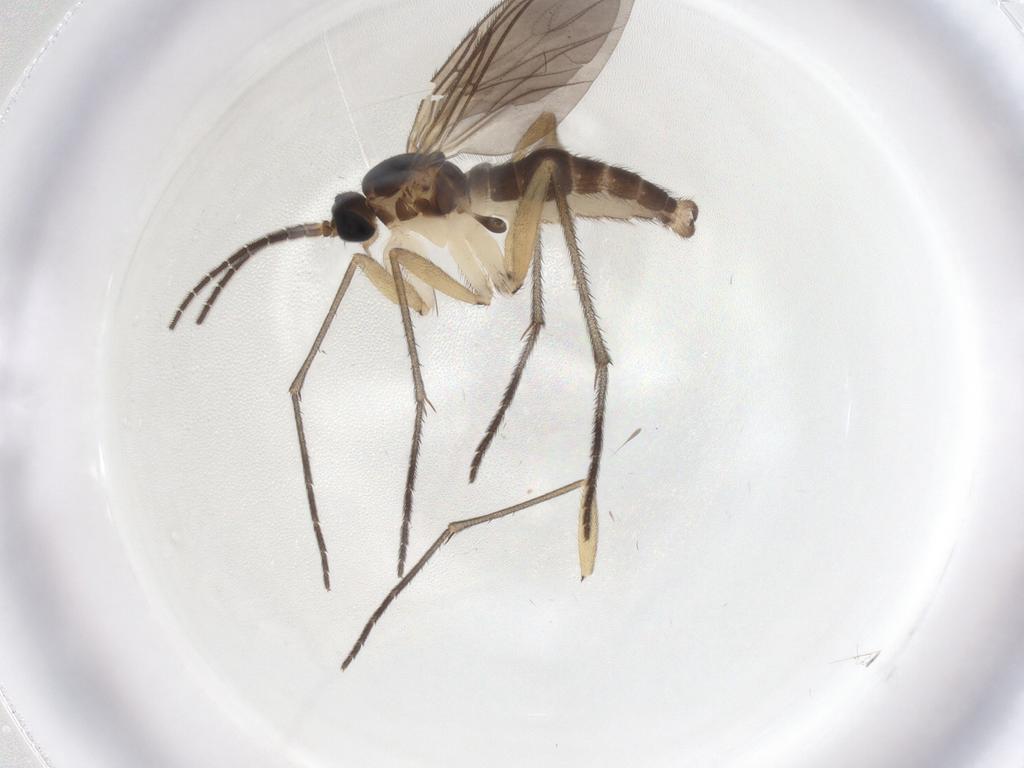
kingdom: Animalia
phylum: Arthropoda
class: Insecta
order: Diptera
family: Sciaridae
